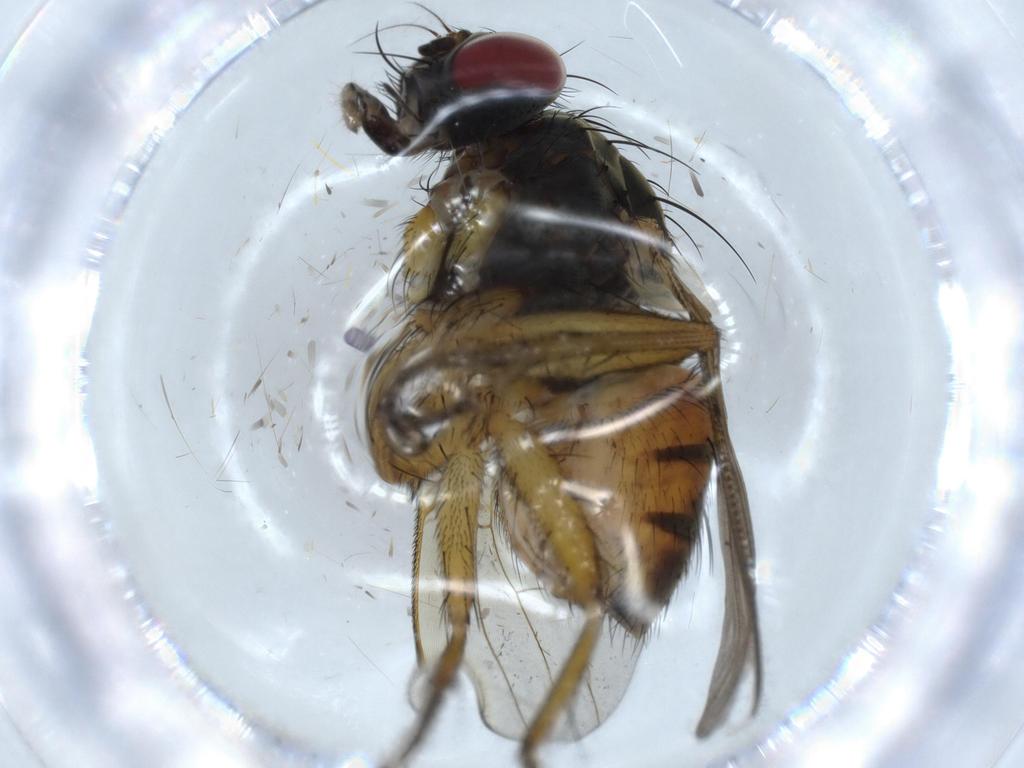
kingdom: Animalia
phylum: Arthropoda
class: Insecta
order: Diptera
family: Muscidae
